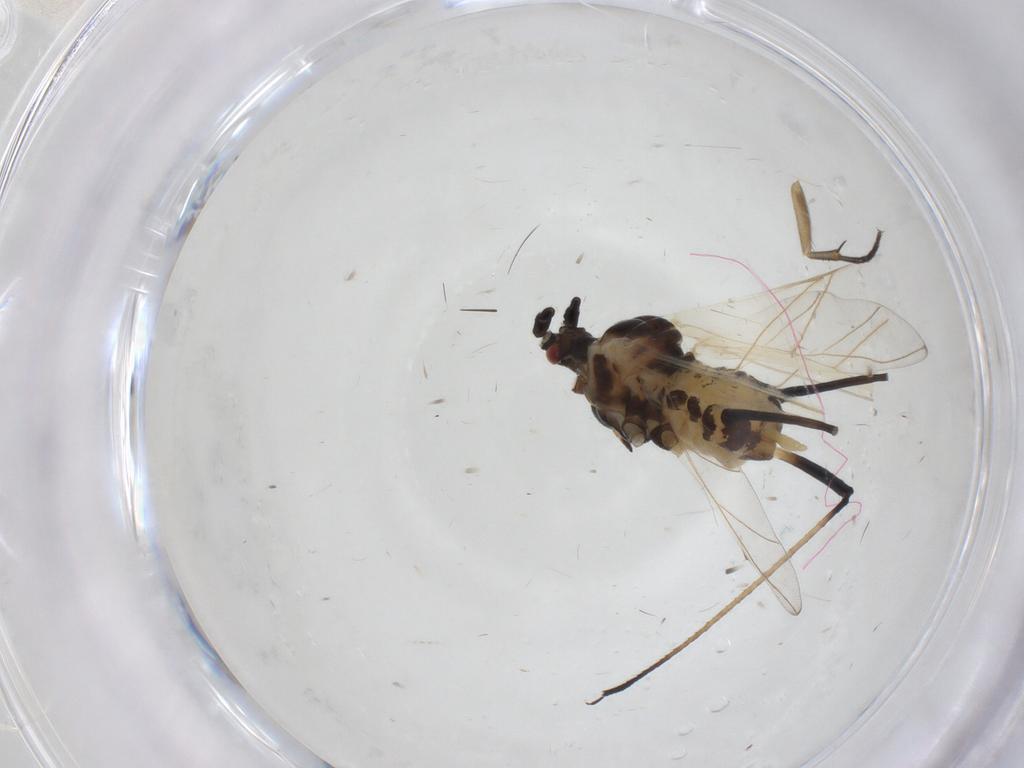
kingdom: Animalia
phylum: Arthropoda
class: Insecta
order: Hemiptera
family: Aphididae
